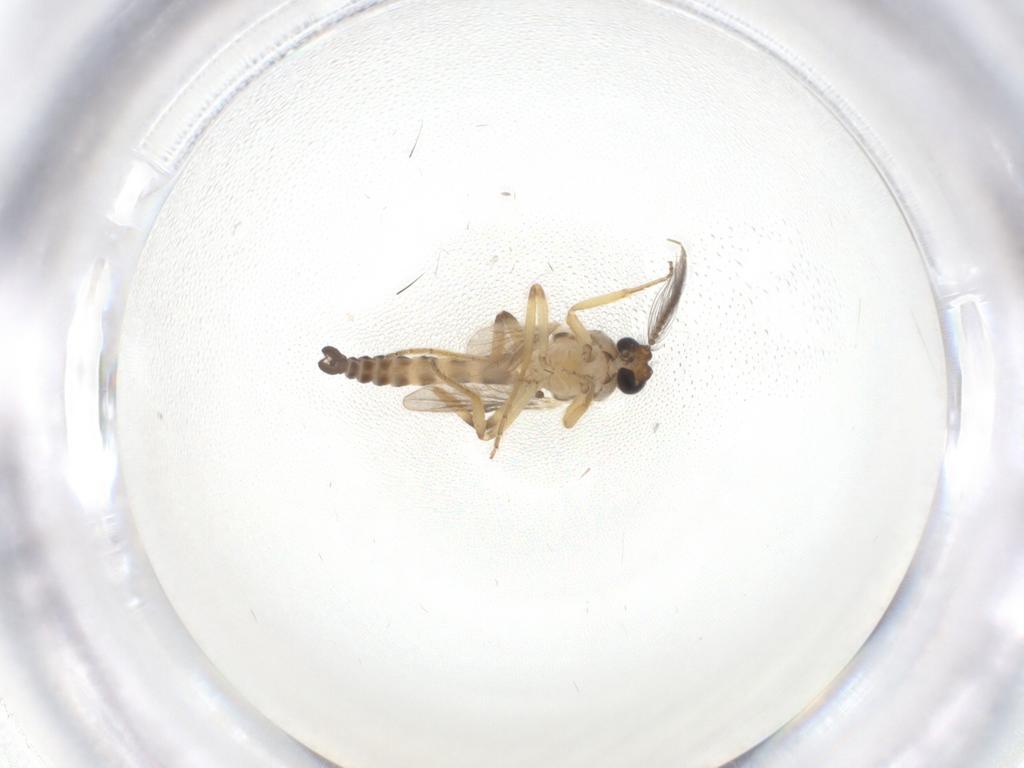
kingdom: Animalia
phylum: Arthropoda
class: Insecta
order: Diptera
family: Ceratopogonidae
